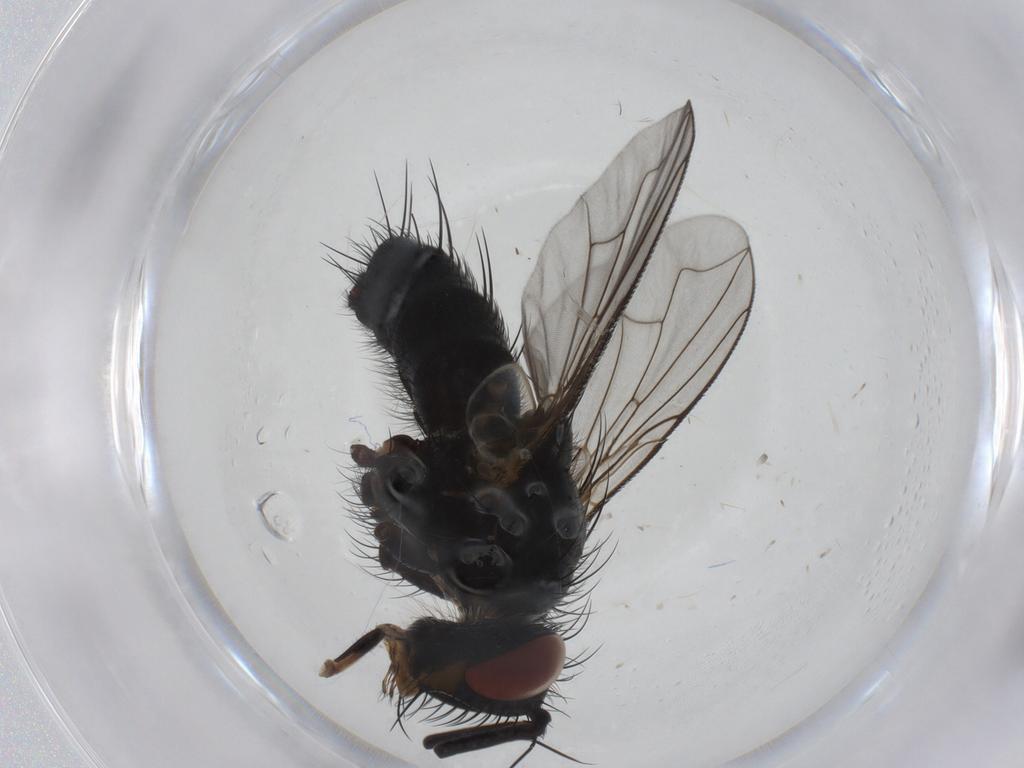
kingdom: Animalia
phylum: Arthropoda
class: Insecta
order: Diptera
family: Tachinidae
